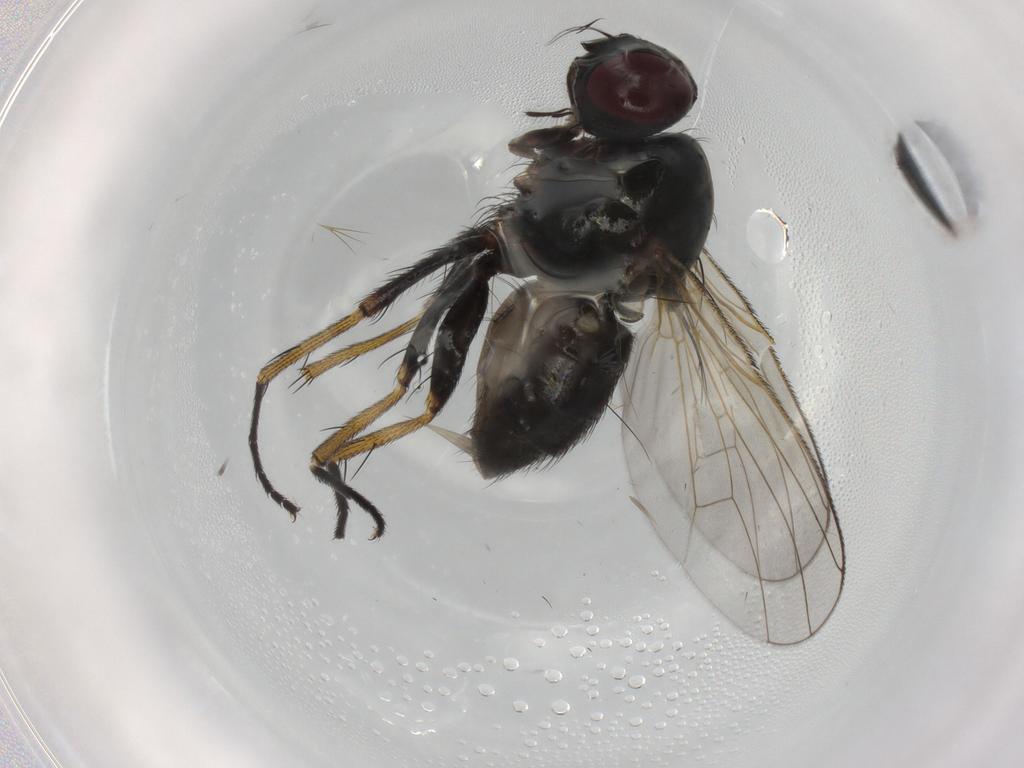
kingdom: Animalia
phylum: Arthropoda
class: Insecta
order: Diptera
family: Muscidae
